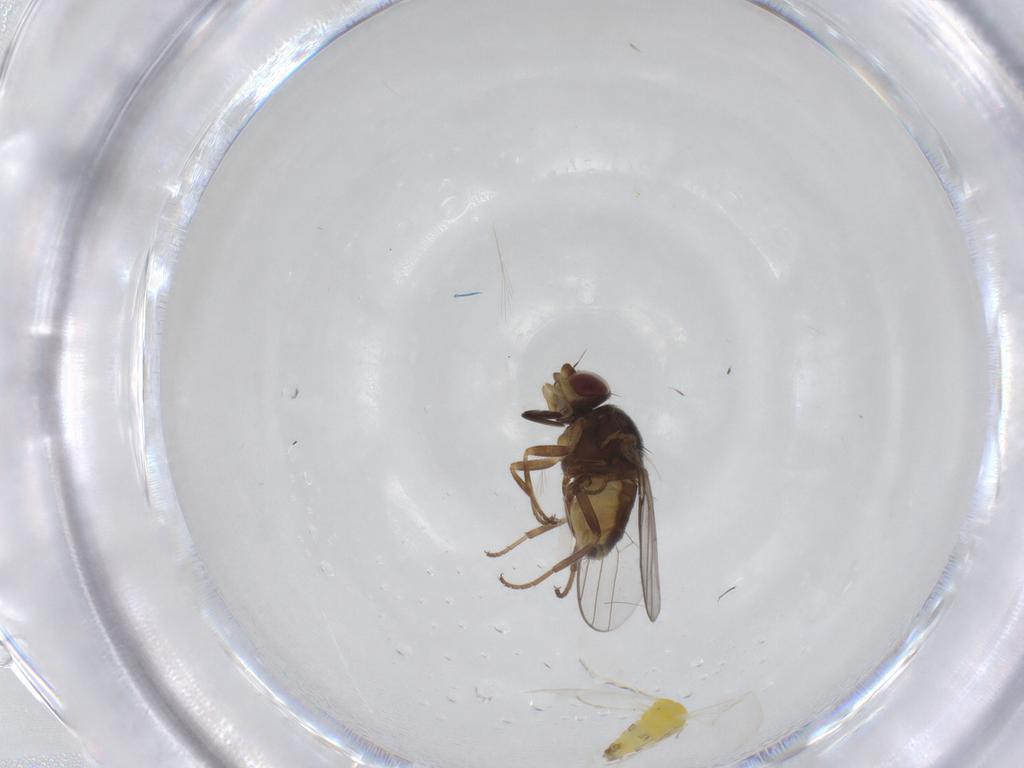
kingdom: Animalia
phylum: Arthropoda
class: Insecta
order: Diptera
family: Chloropidae
